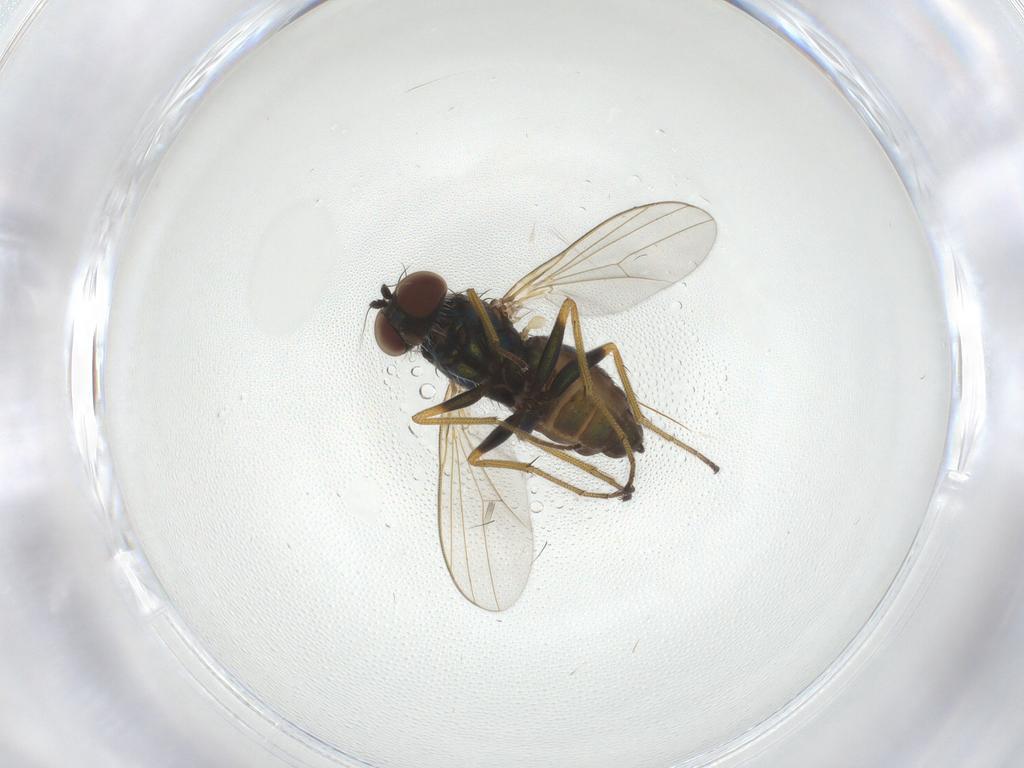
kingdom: Animalia
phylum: Arthropoda
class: Insecta
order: Diptera
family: Dolichopodidae
